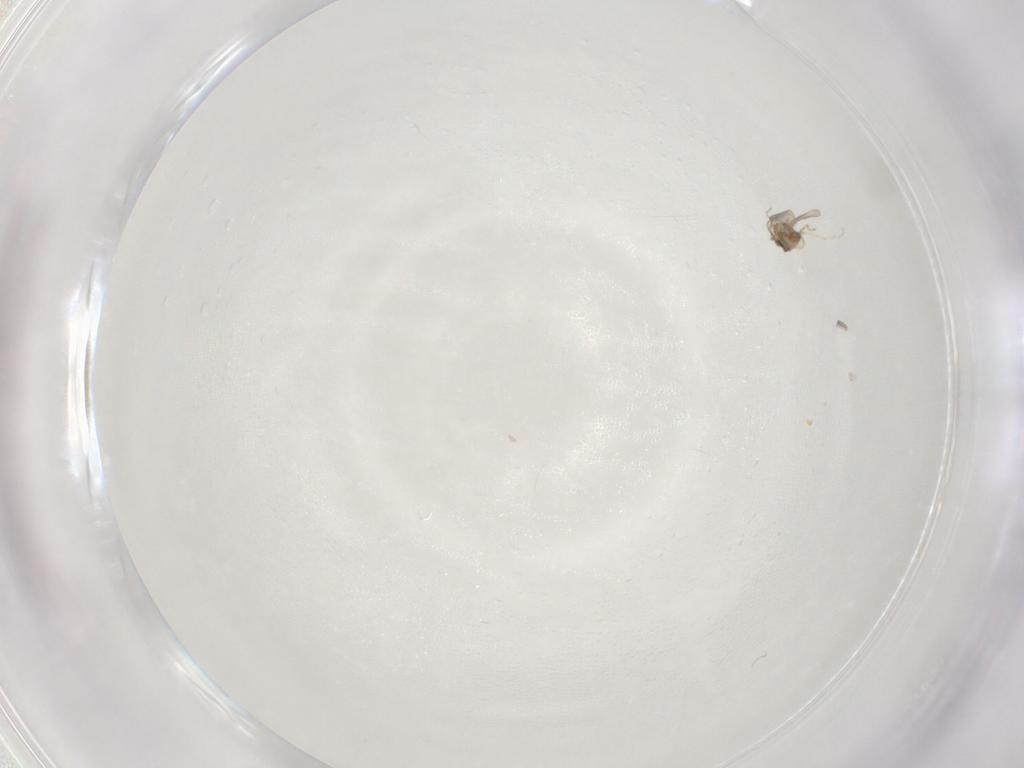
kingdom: Animalia
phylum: Arthropoda
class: Insecta
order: Diptera
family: Cecidomyiidae
